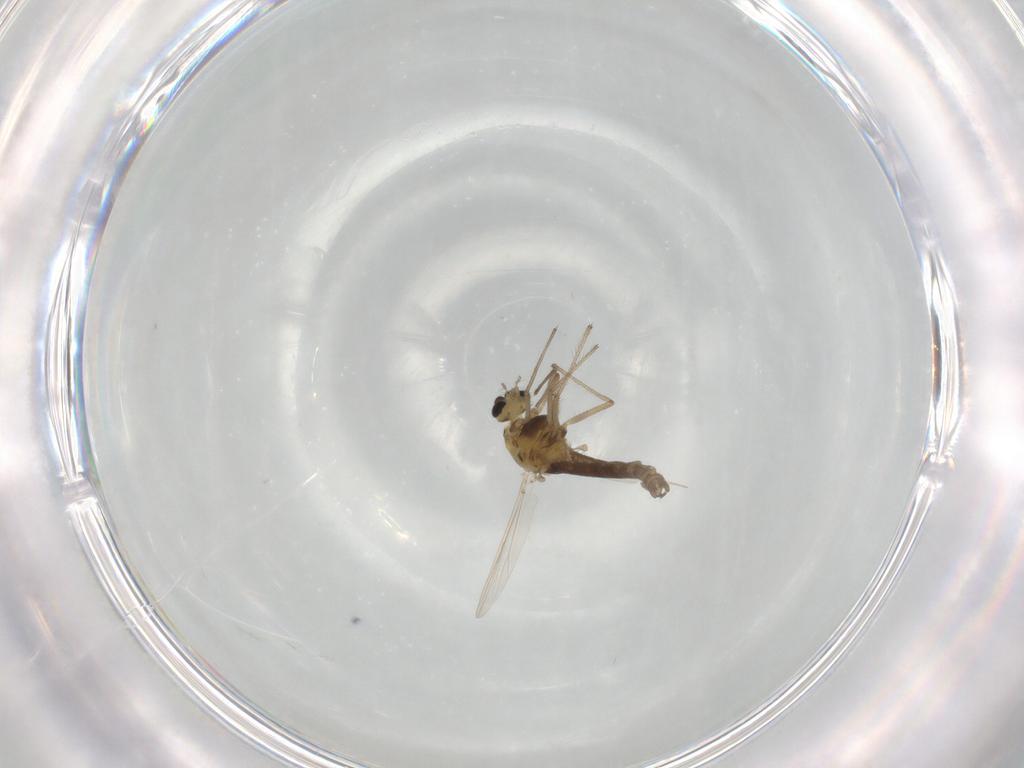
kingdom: Animalia
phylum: Arthropoda
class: Insecta
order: Diptera
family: Chironomidae
